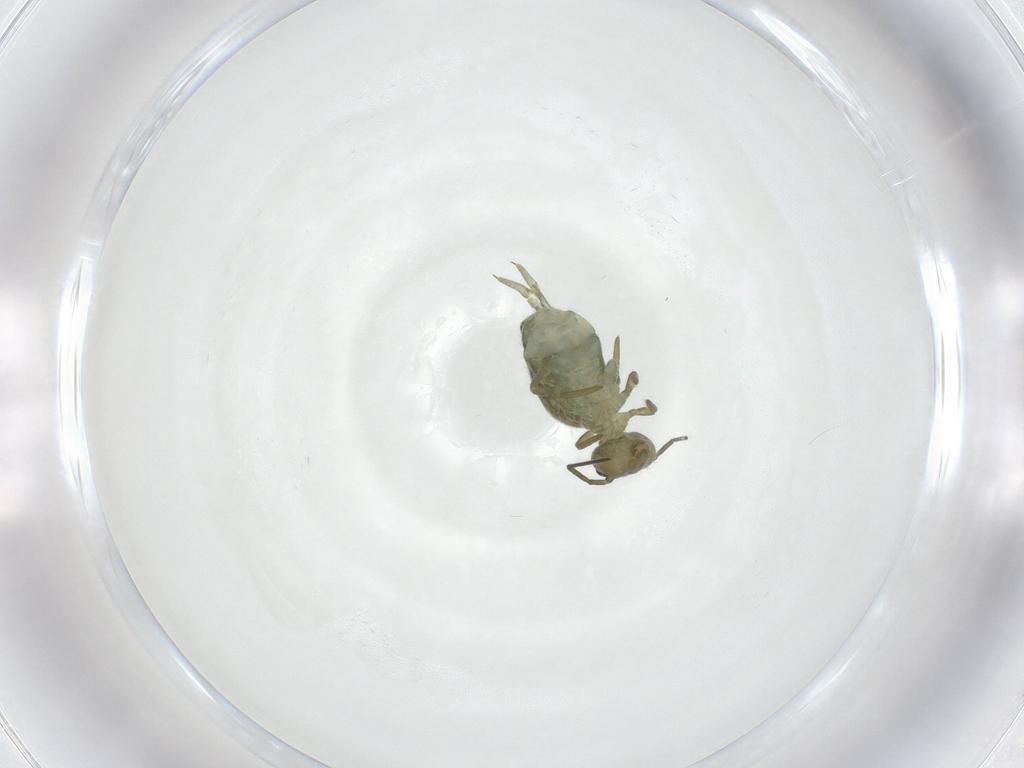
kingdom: Animalia
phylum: Arthropoda
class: Collembola
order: Symphypleona
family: Sminthuridae
